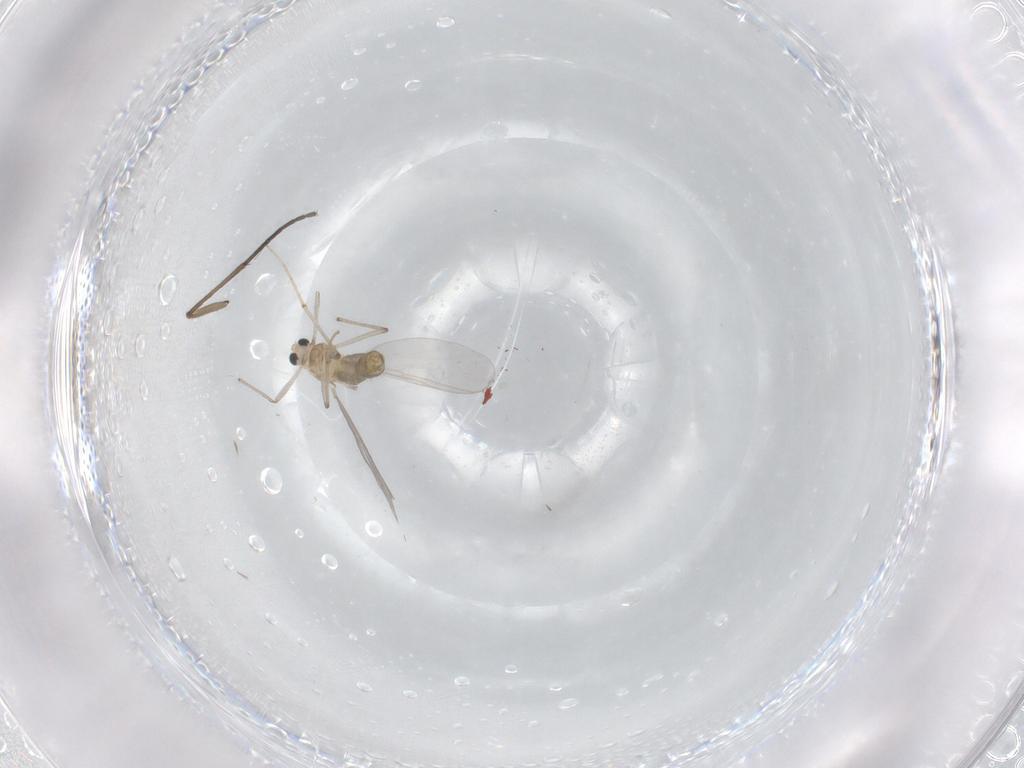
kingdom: Animalia
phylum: Arthropoda
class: Insecta
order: Diptera
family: Chironomidae
